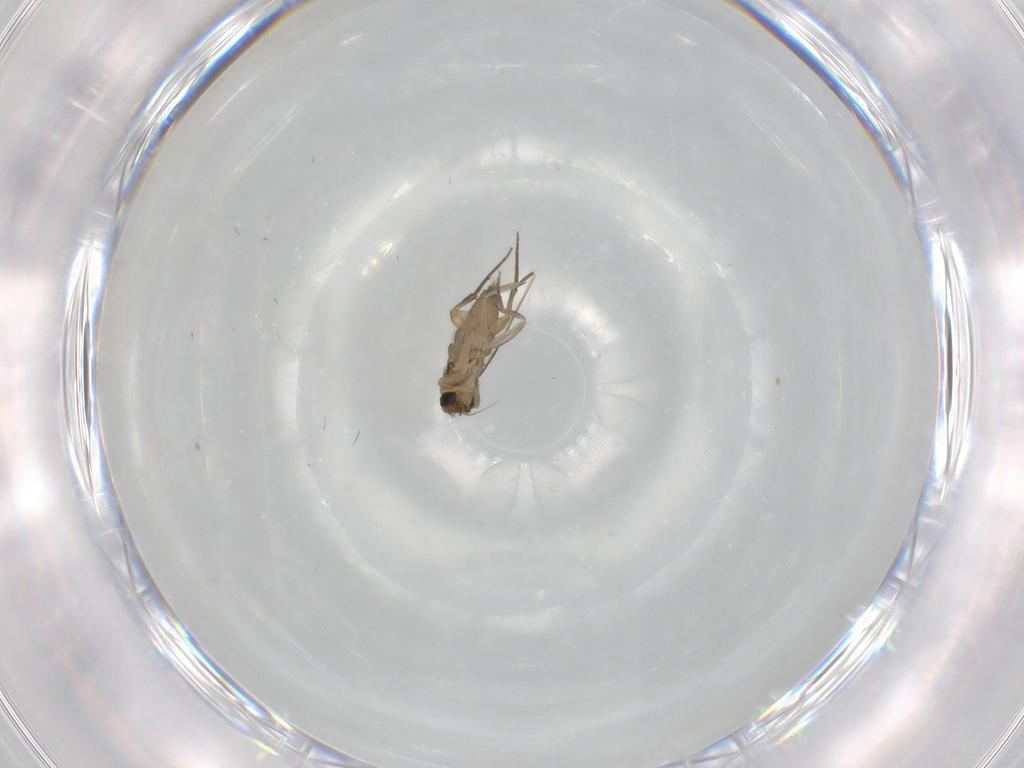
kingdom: Animalia
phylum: Arthropoda
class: Insecta
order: Diptera
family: Phoridae
